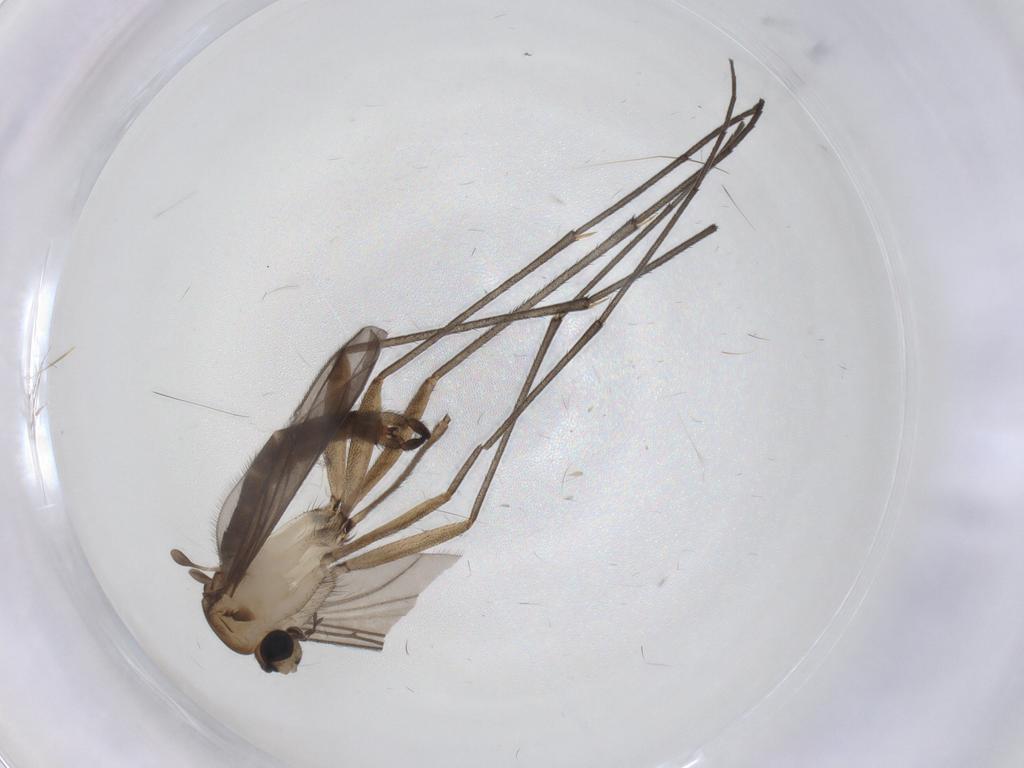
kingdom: Animalia
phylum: Arthropoda
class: Insecta
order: Diptera
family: Sciaridae
